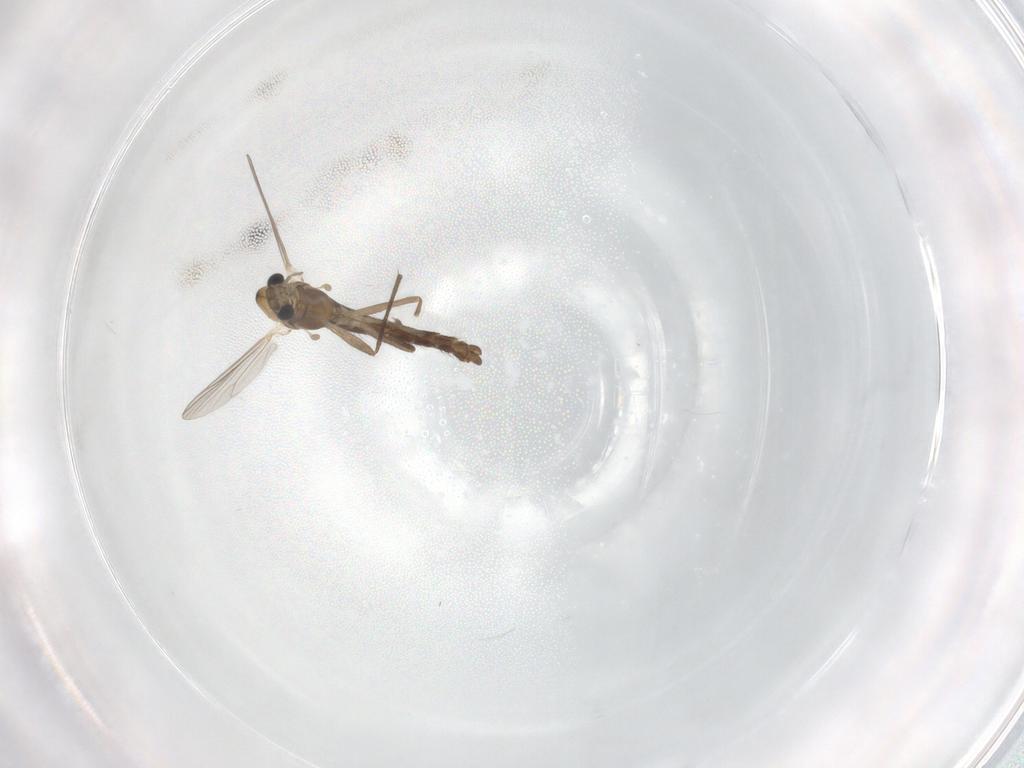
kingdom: Animalia
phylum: Arthropoda
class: Insecta
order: Diptera
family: Chironomidae
